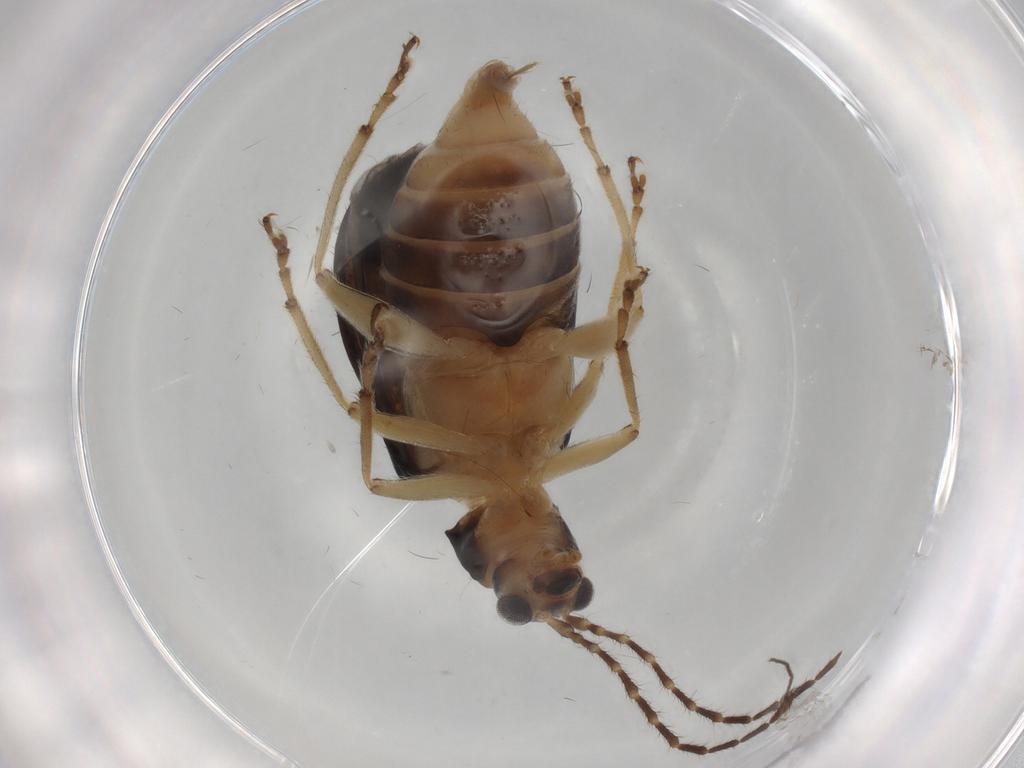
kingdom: Animalia
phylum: Arthropoda
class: Insecta
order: Coleoptera
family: Chrysomelidae
